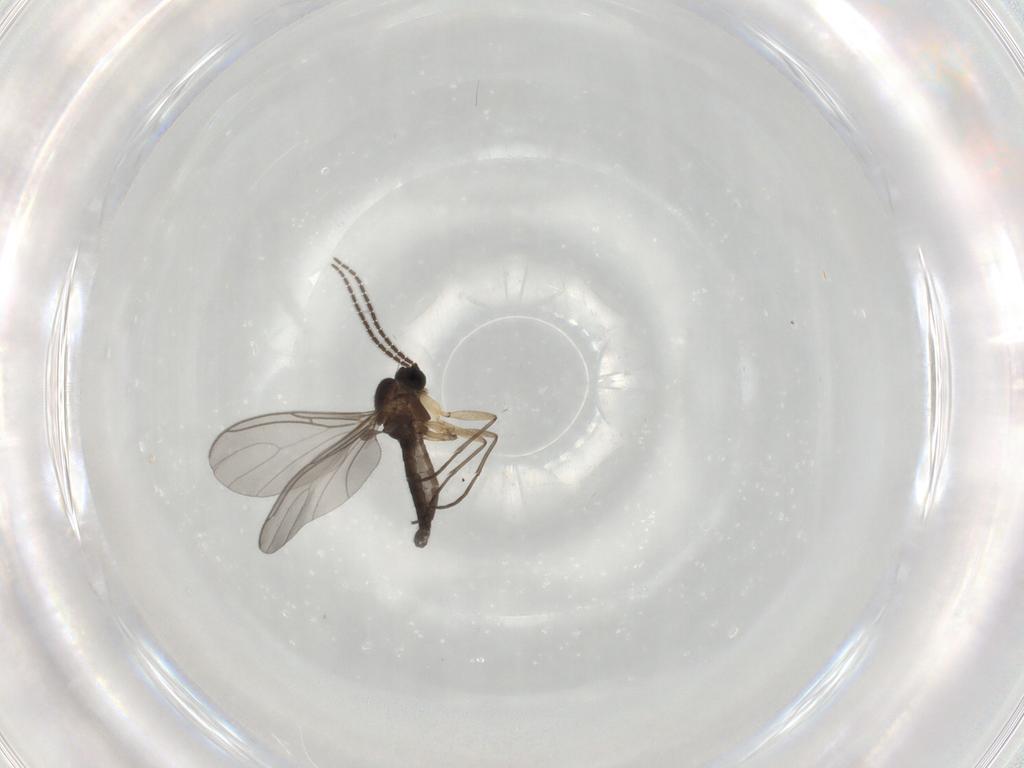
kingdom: Animalia
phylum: Arthropoda
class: Insecta
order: Diptera
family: Sciaridae
